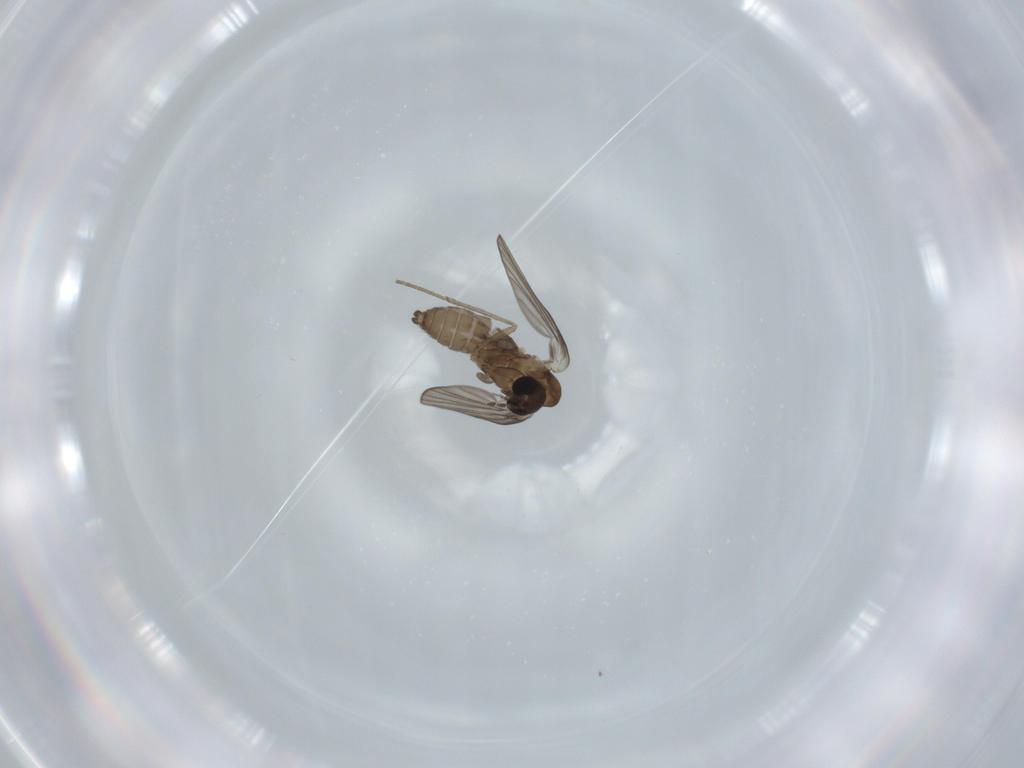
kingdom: Animalia
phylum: Arthropoda
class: Insecta
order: Diptera
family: Psychodidae
